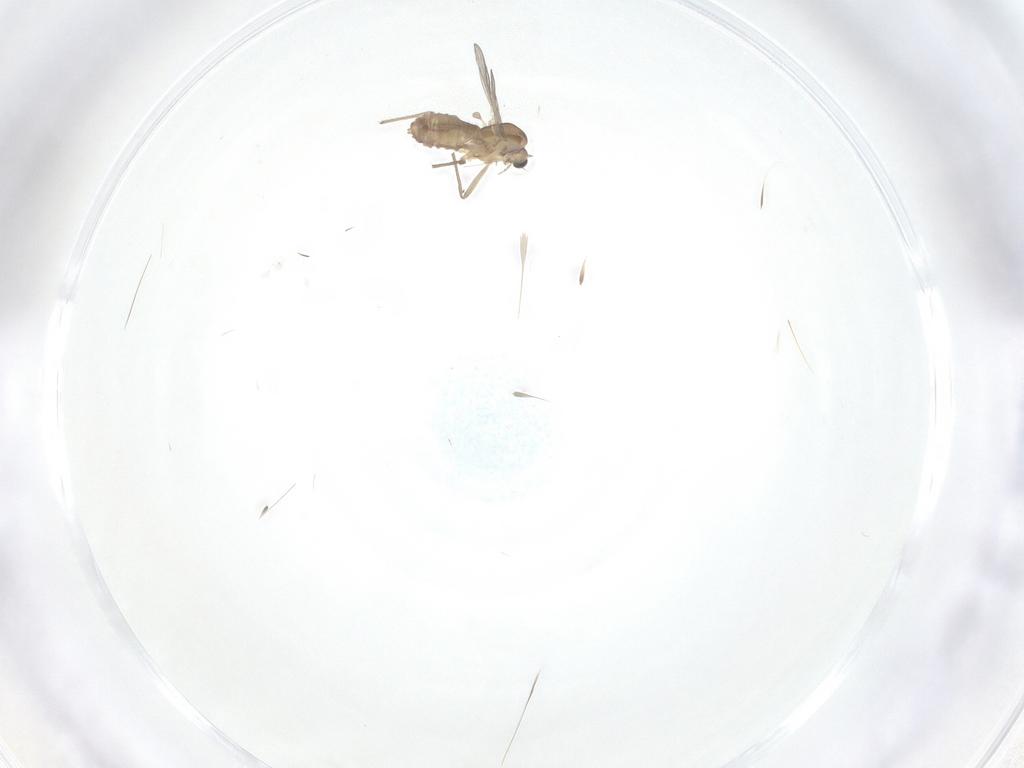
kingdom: Animalia
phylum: Arthropoda
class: Insecta
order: Diptera
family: Chironomidae
